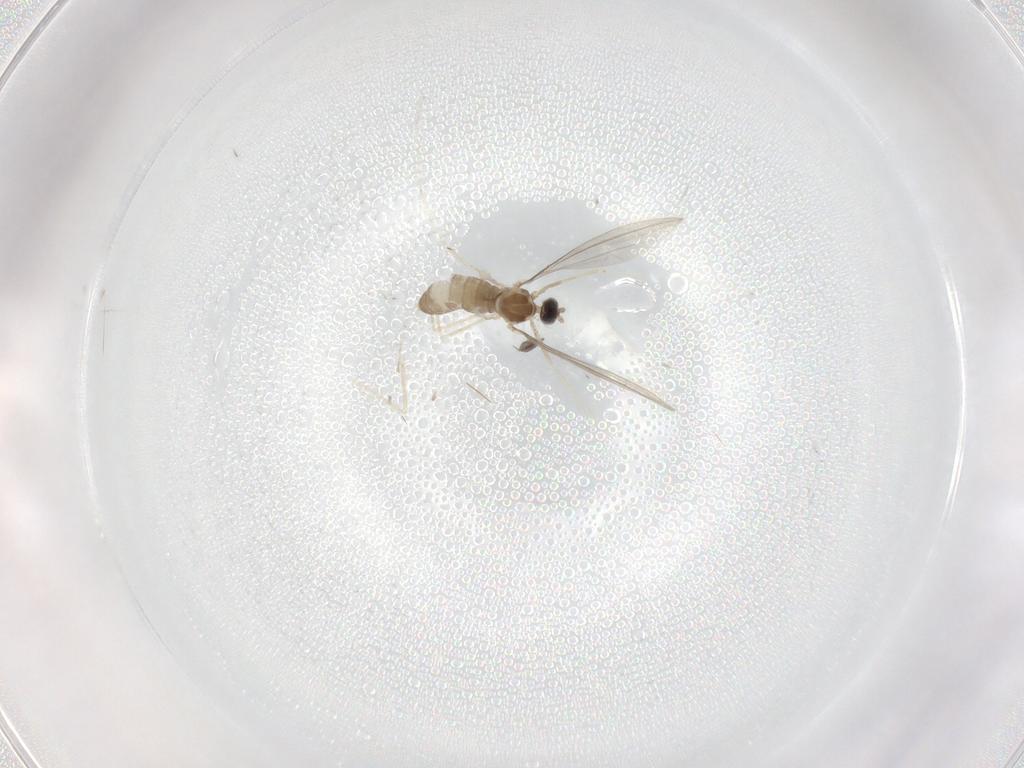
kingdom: Animalia
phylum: Arthropoda
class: Insecta
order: Diptera
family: Cecidomyiidae
